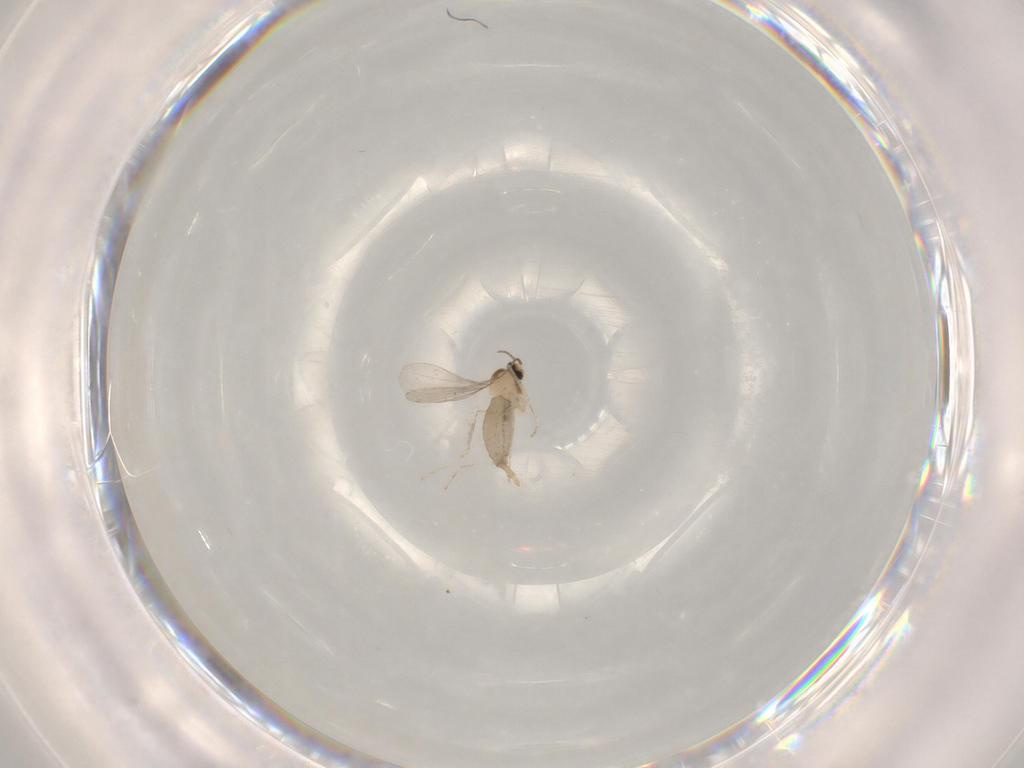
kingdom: Animalia
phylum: Arthropoda
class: Insecta
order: Diptera
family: Cecidomyiidae
